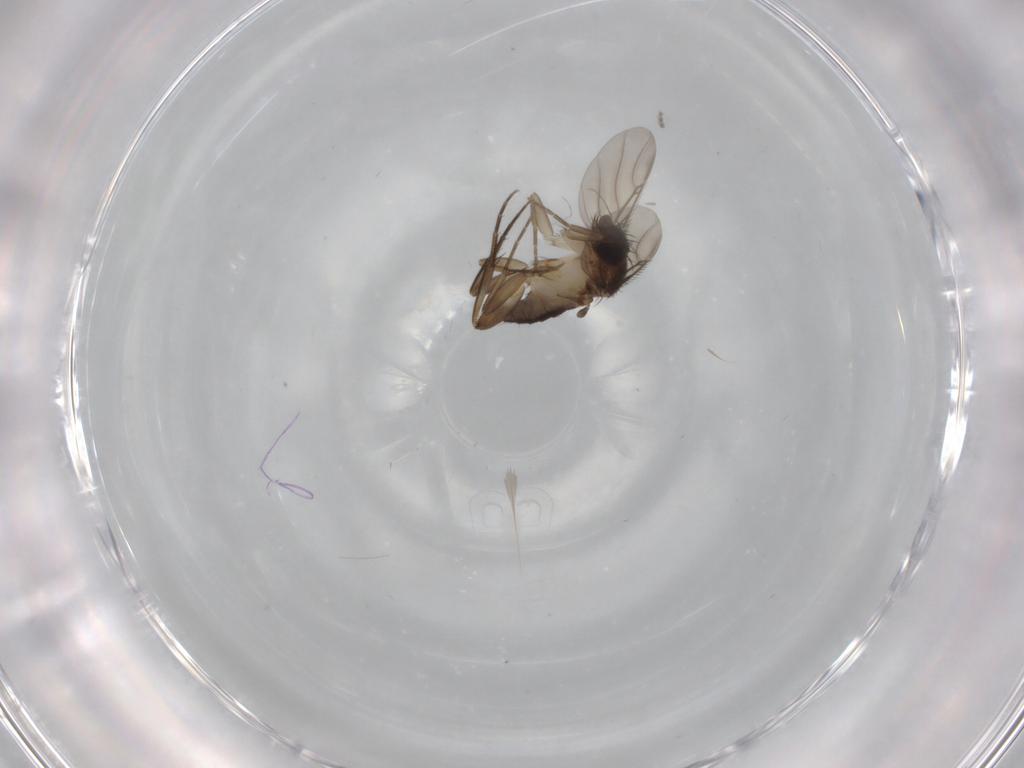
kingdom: Animalia
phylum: Arthropoda
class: Insecta
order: Diptera
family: Phoridae
